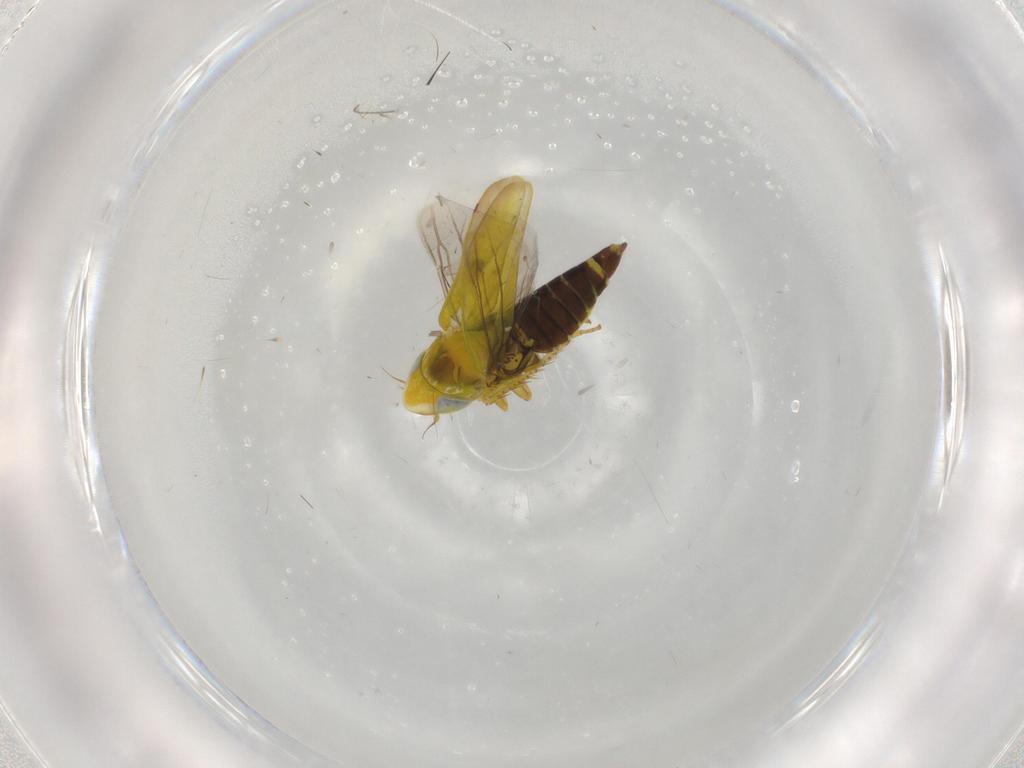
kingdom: Animalia
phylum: Arthropoda
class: Insecta
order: Hemiptera
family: Cicadellidae
